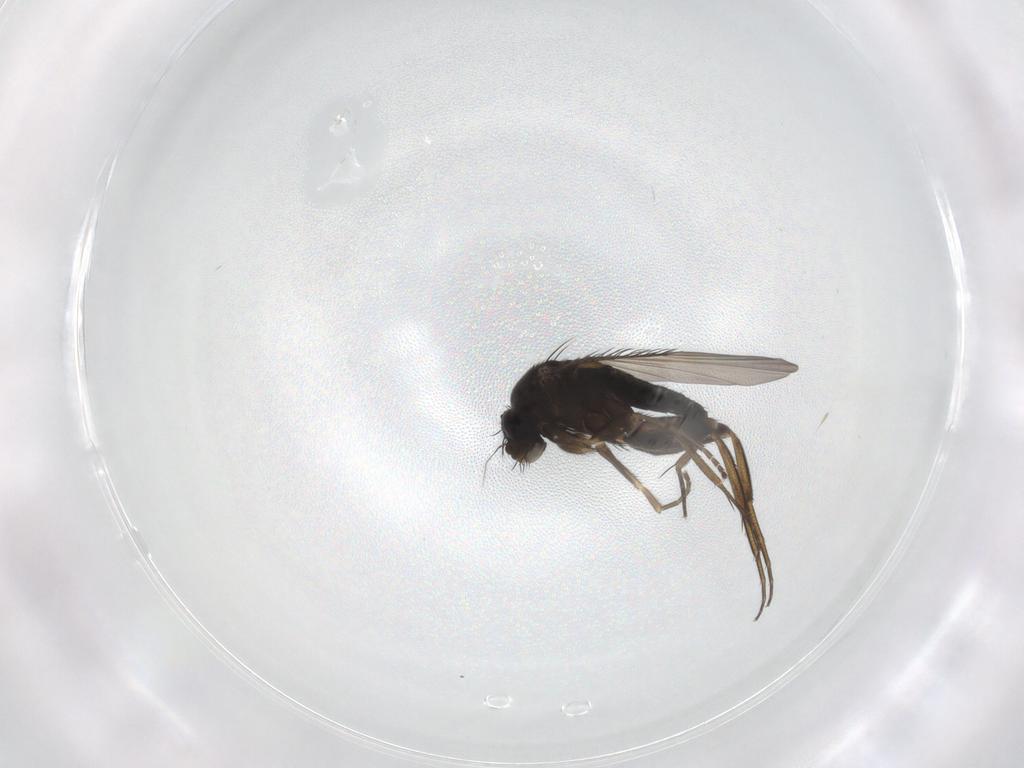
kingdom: Animalia
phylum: Arthropoda
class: Insecta
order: Diptera
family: Phoridae
